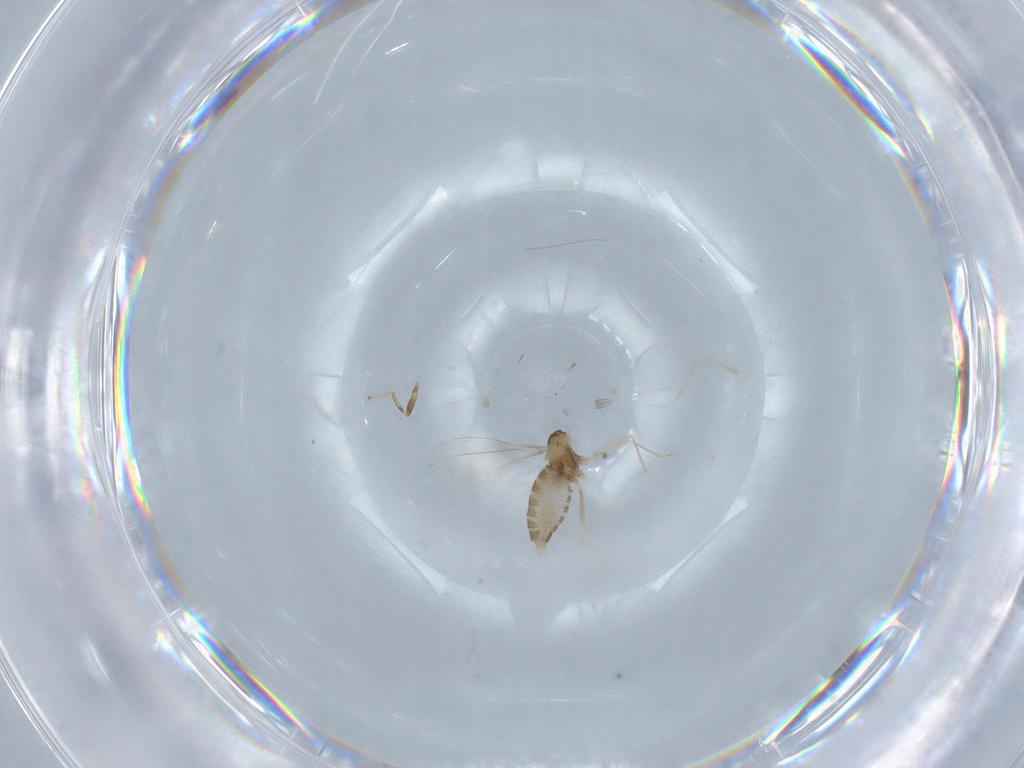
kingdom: Animalia
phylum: Arthropoda
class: Insecta
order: Diptera
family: Scatopsidae
